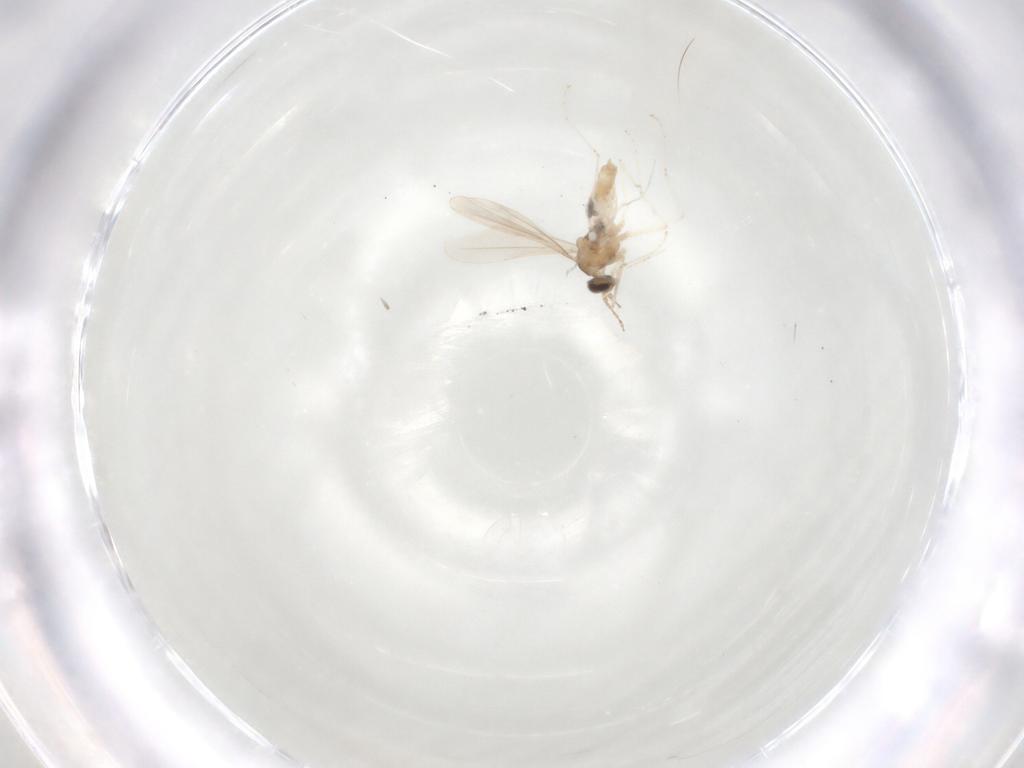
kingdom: Animalia
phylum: Arthropoda
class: Insecta
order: Diptera
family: Cecidomyiidae
